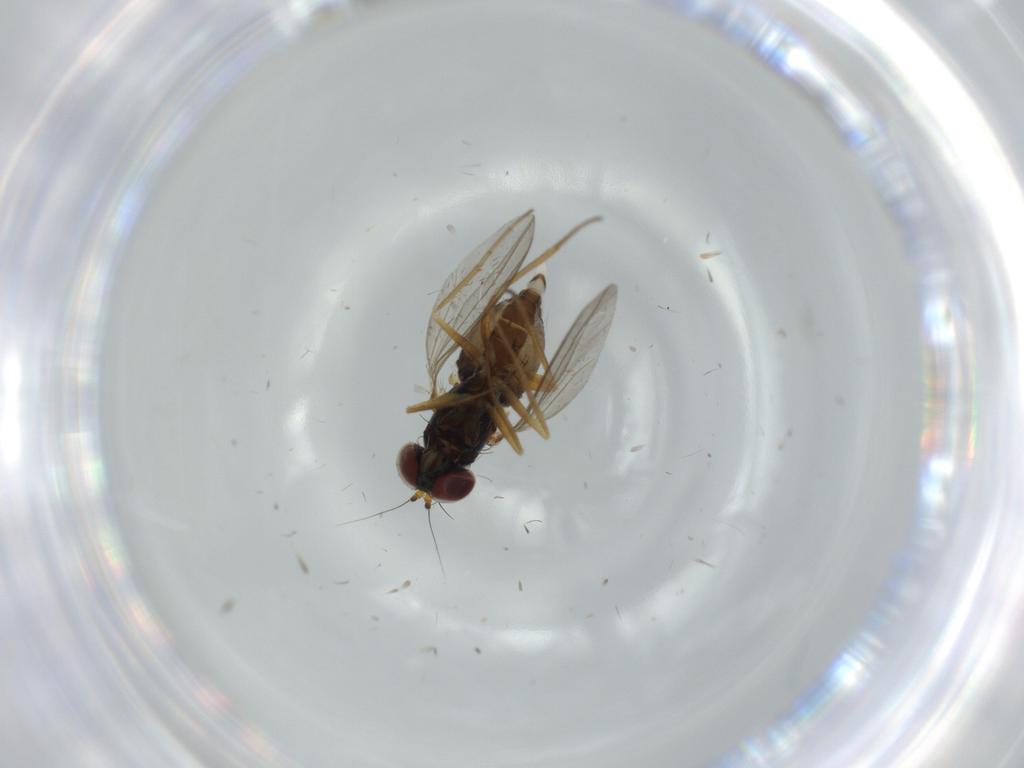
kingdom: Animalia
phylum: Arthropoda
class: Insecta
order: Diptera
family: Dolichopodidae
